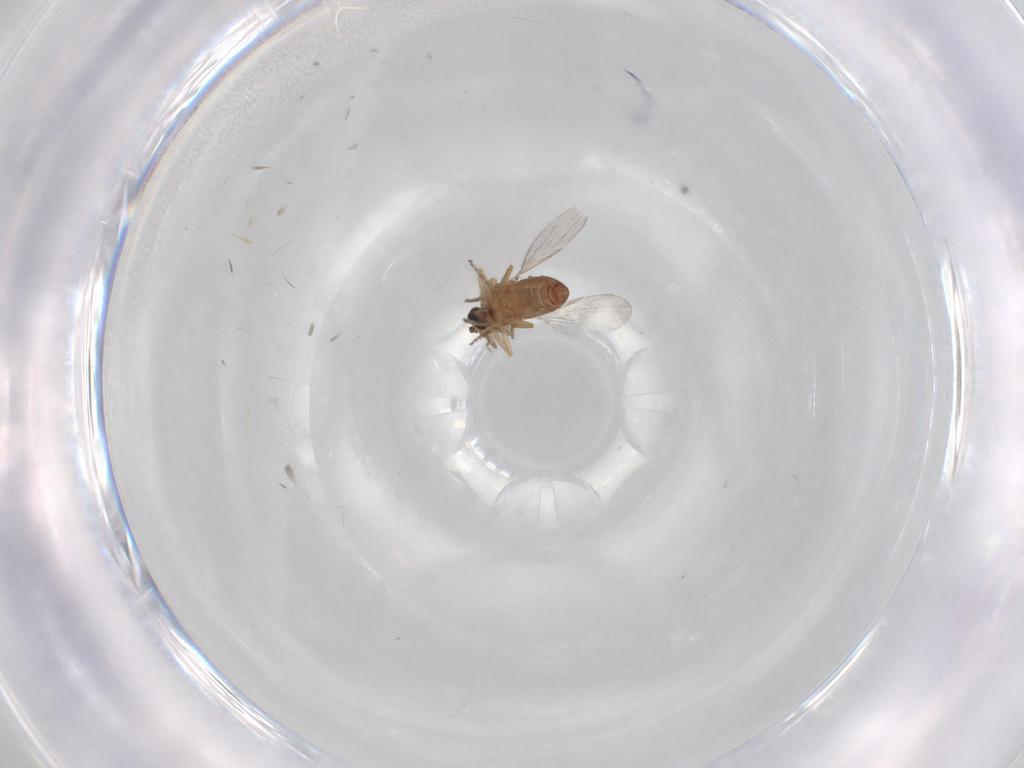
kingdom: Animalia
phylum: Arthropoda
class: Insecta
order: Diptera
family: Ceratopogonidae
